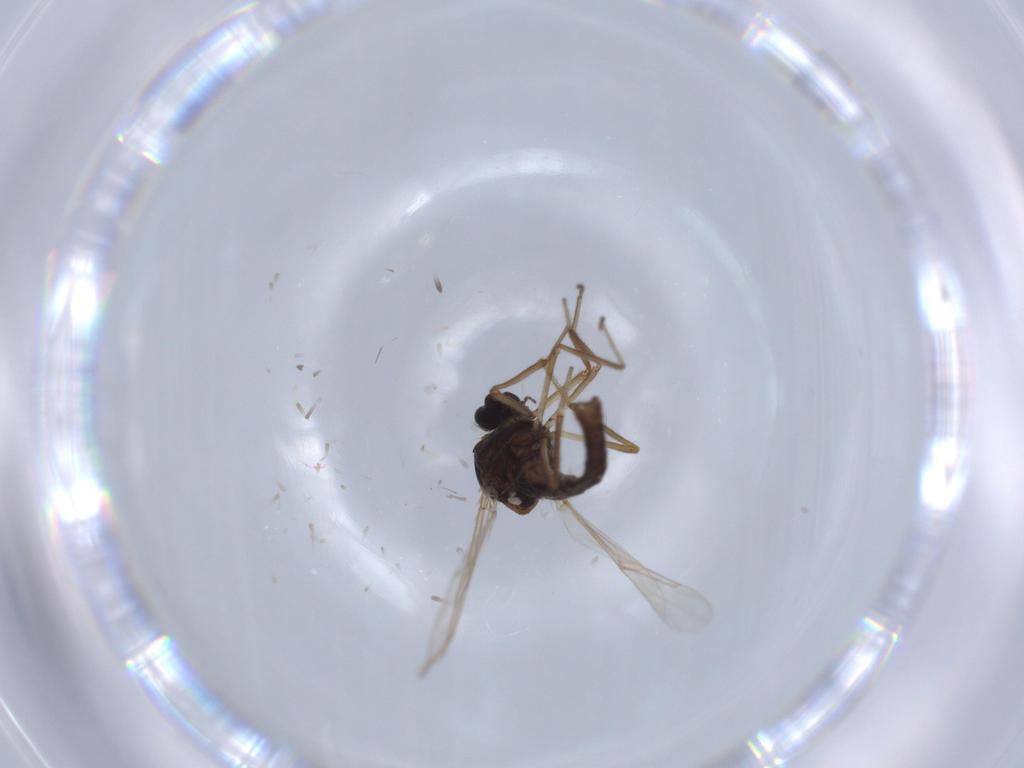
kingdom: Animalia
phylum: Arthropoda
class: Insecta
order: Diptera
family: Ceratopogonidae
